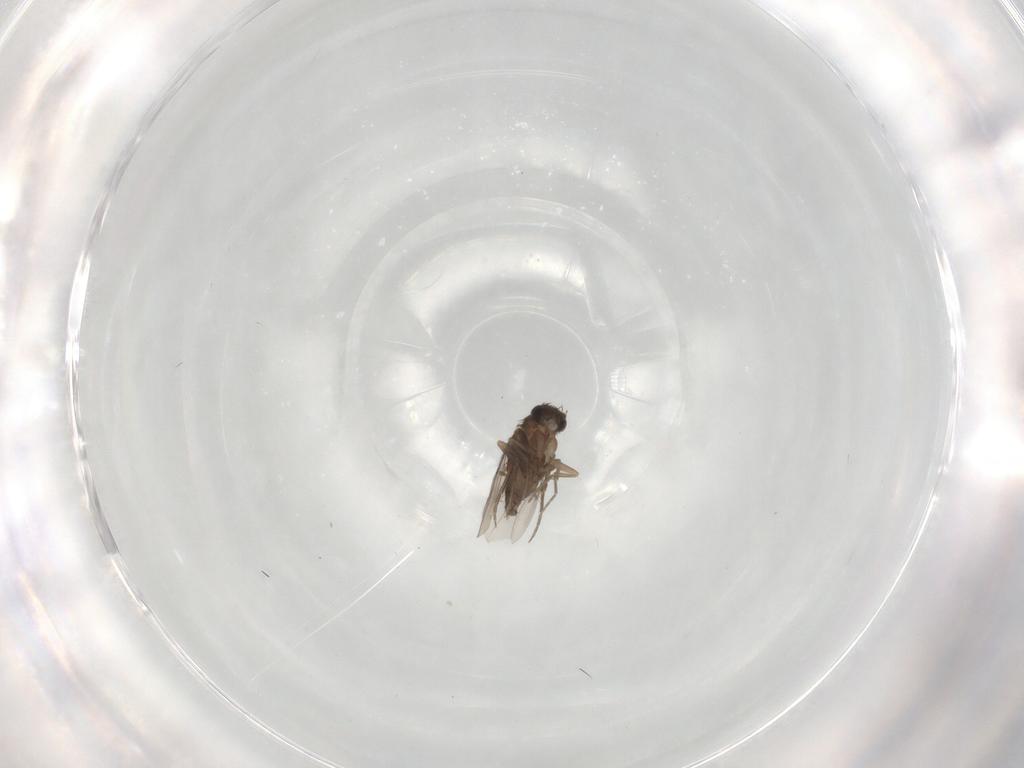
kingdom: Animalia
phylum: Arthropoda
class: Insecta
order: Diptera
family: Phoridae
